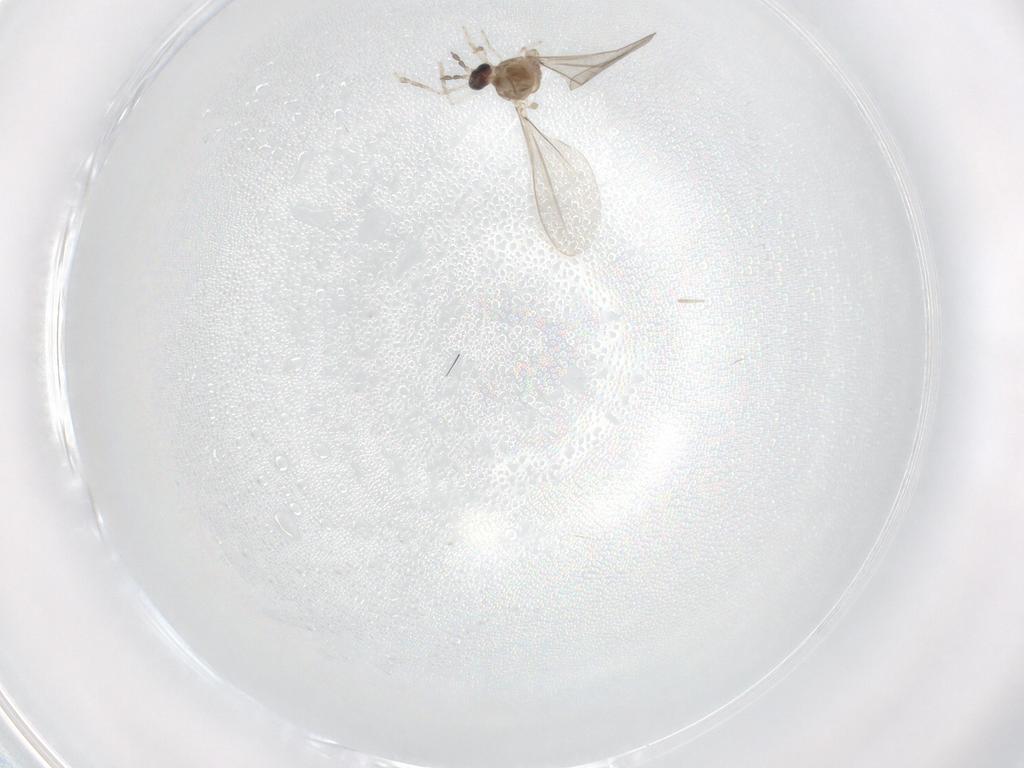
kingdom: Animalia
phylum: Arthropoda
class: Insecta
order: Diptera
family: Cecidomyiidae
